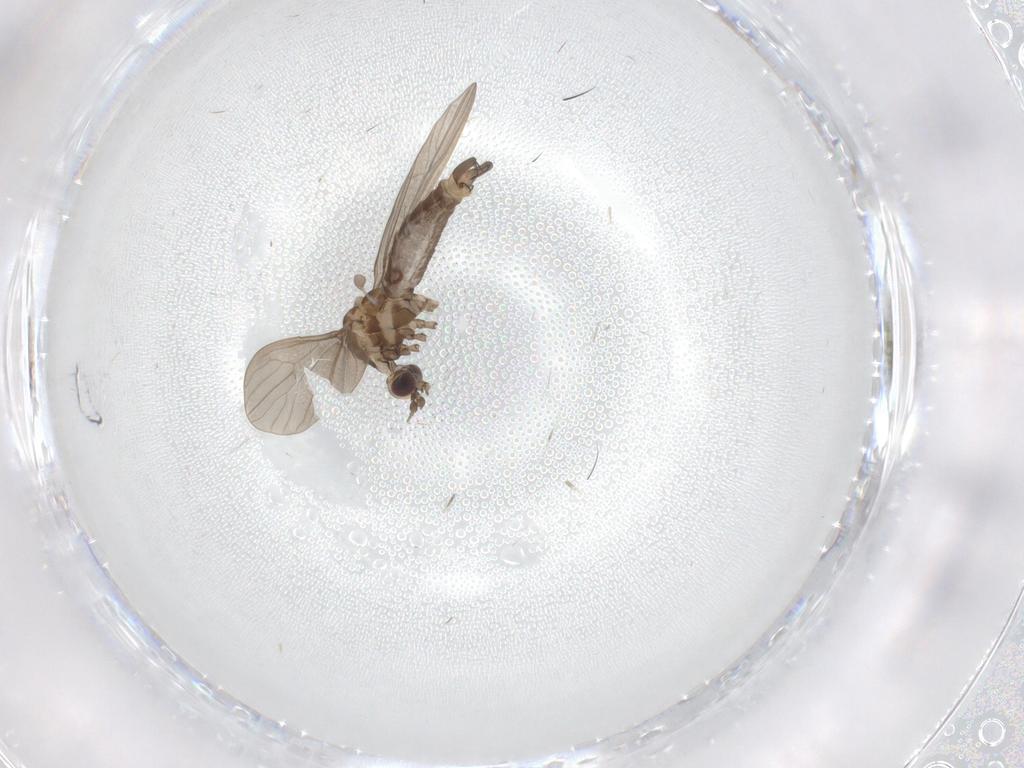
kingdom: Animalia
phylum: Arthropoda
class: Insecta
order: Diptera
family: Limoniidae
